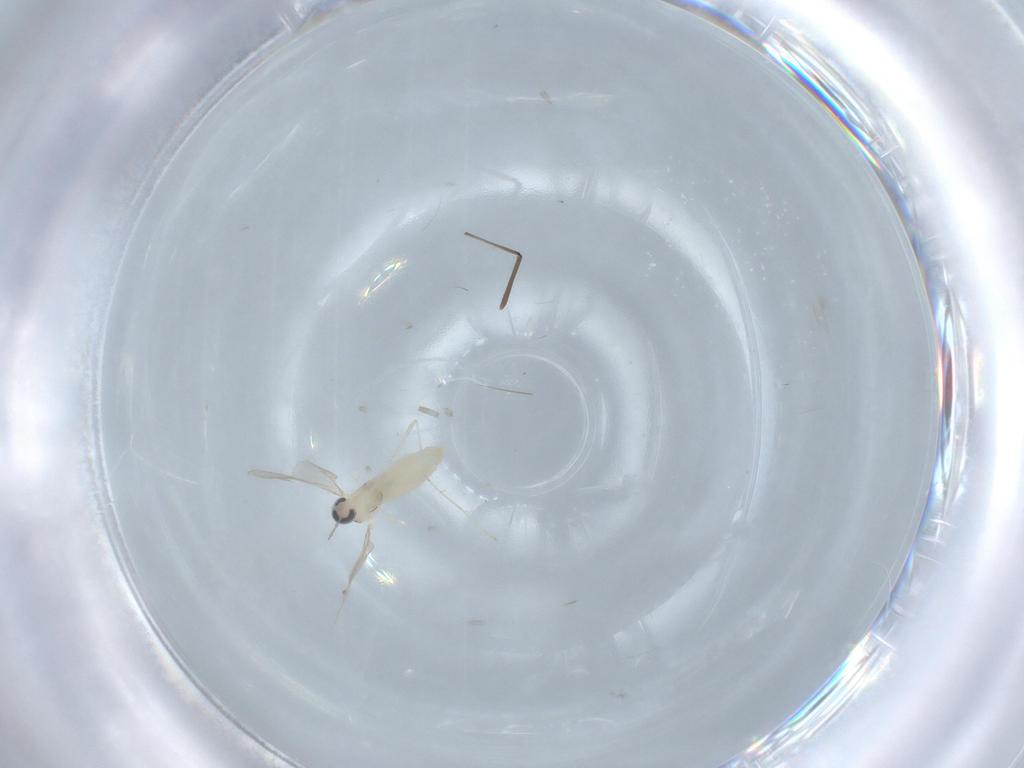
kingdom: Animalia
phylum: Arthropoda
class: Insecta
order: Diptera
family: Cecidomyiidae
